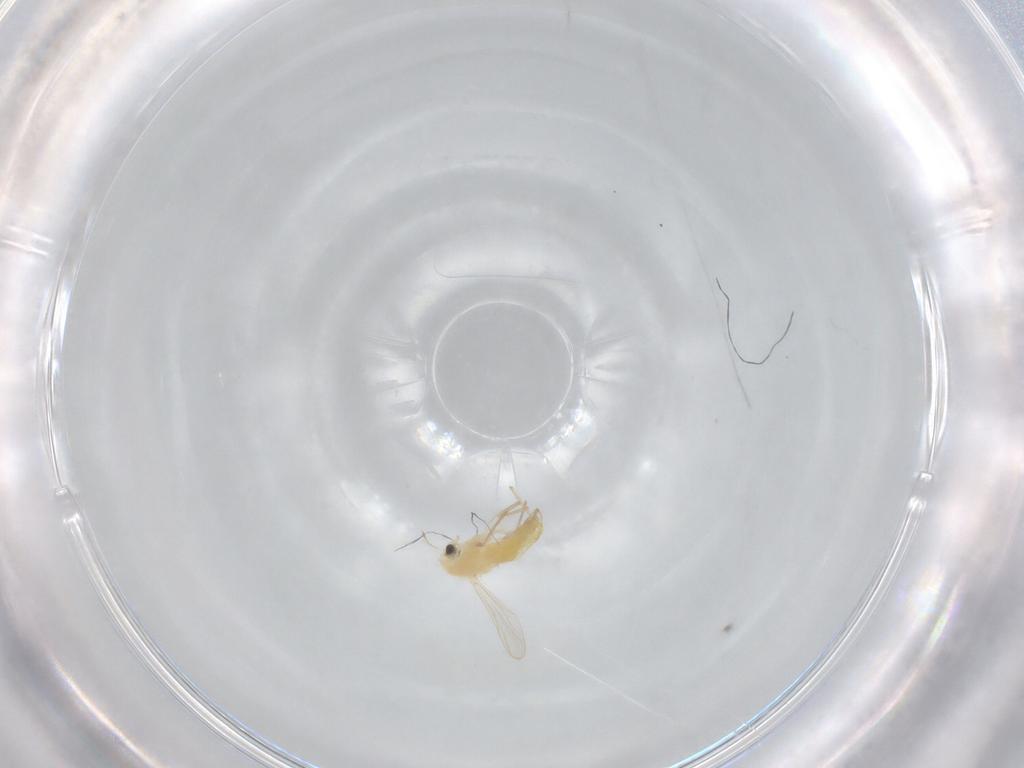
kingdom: Animalia
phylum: Arthropoda
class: Insecta
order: Diptera
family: Chironomidae
